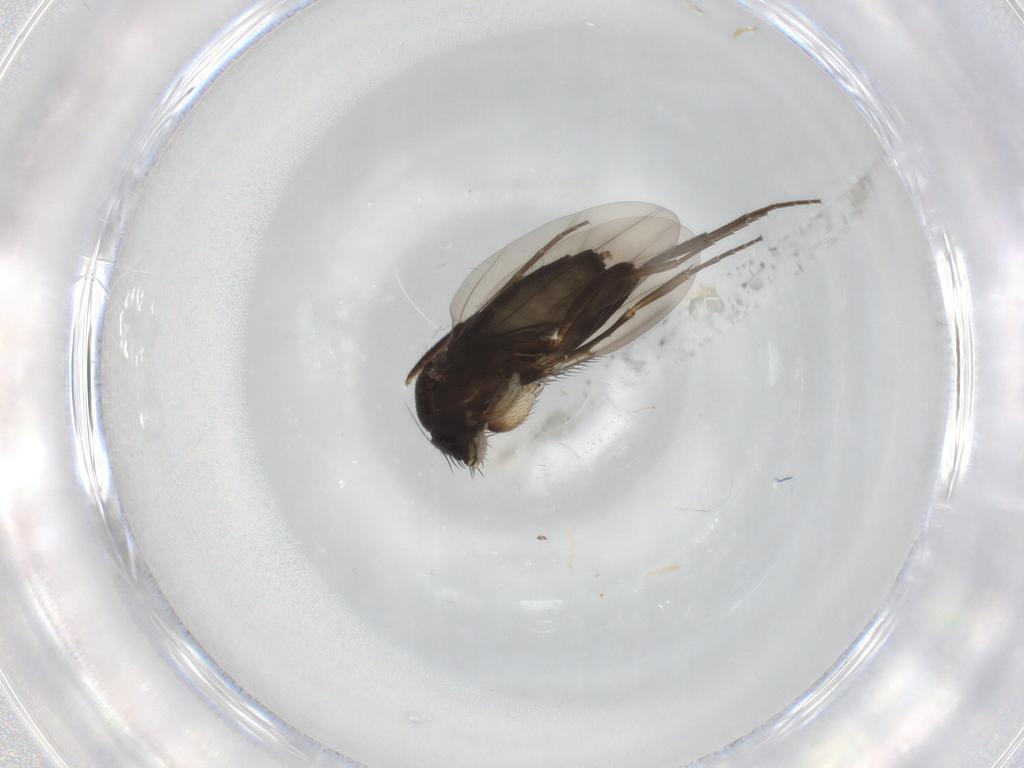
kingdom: Animalia
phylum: Arthropoda
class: Insecta
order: Diptera
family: Phoridae
